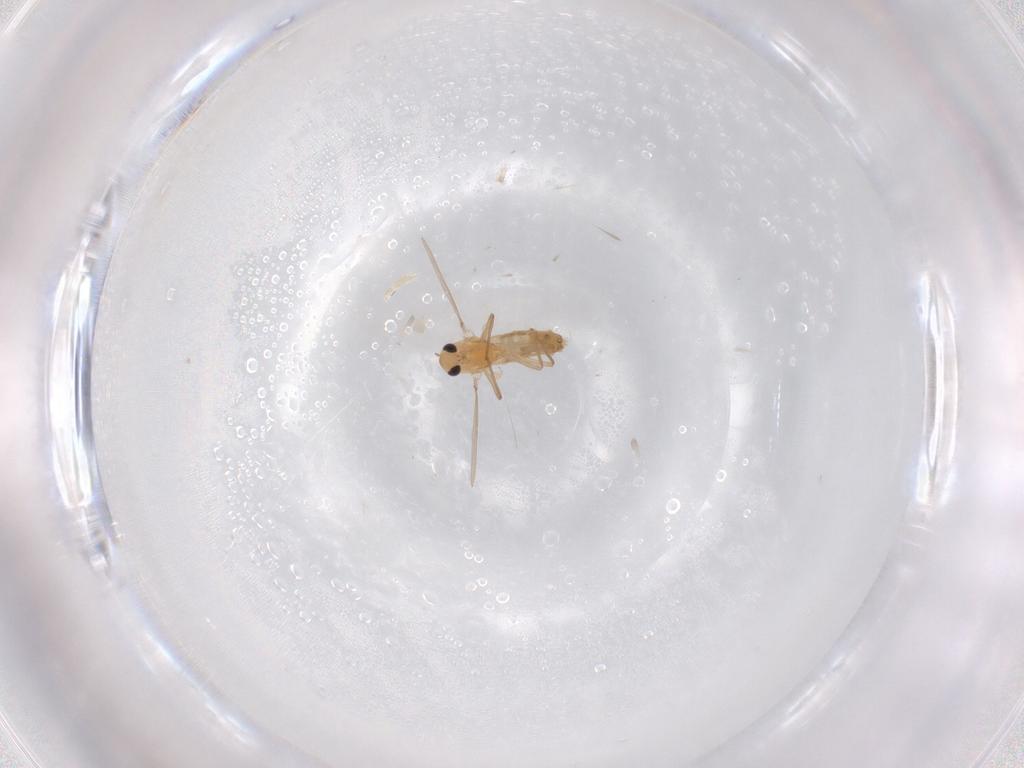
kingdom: Animalia
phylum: Arthropoda
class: Insecta
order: Diptera
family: Chironomidae
